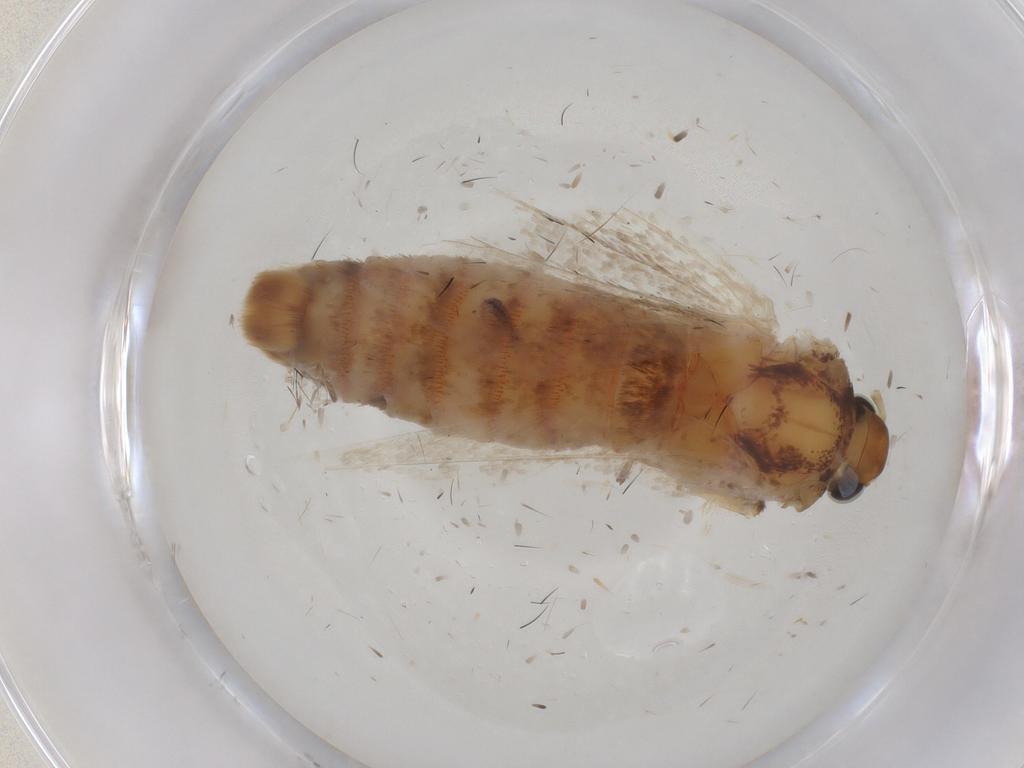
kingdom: Animalia
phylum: Arthropoda
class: Insecta
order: Lepidoptera
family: Lecithoceridae
